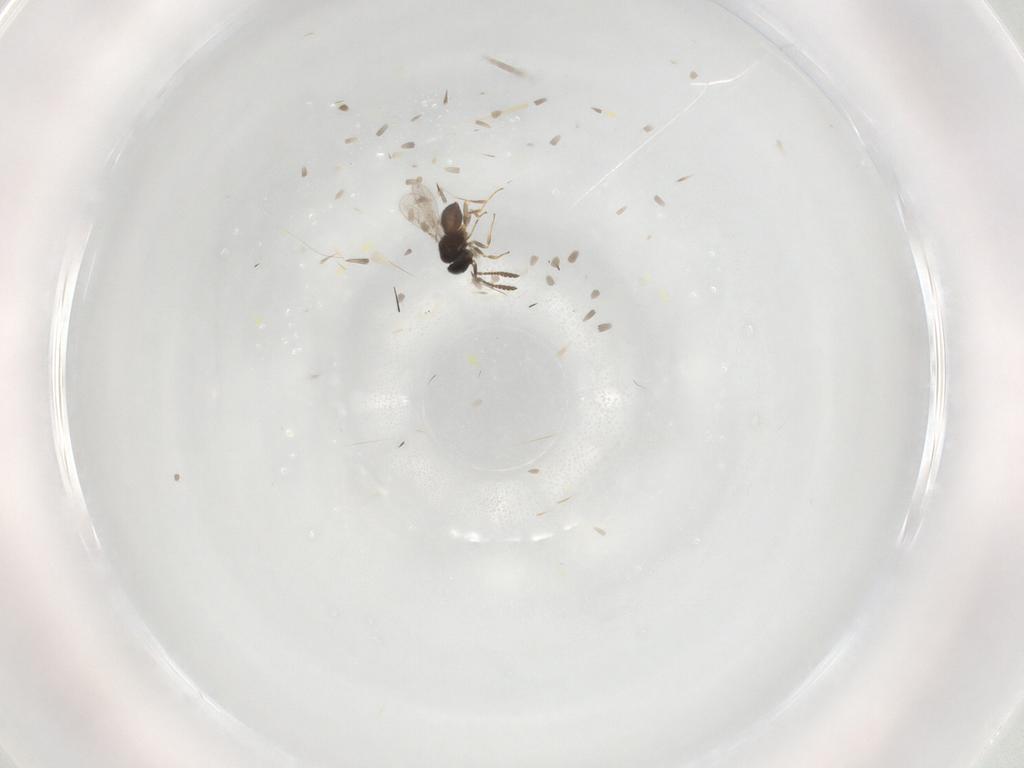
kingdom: Animalia
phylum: Arthropoda
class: Insecta
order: Hymenoptera
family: Scelionidae
